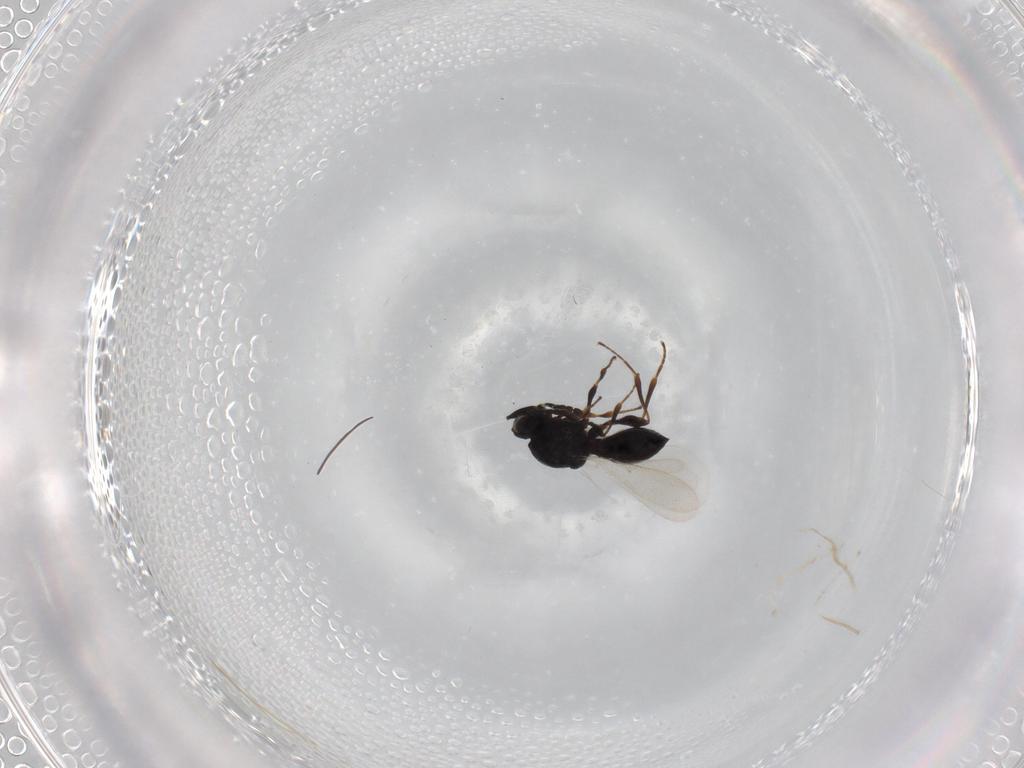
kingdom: Animalia
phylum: Arthropoda
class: Insecta
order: Hymenoptera
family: Platygastridae
